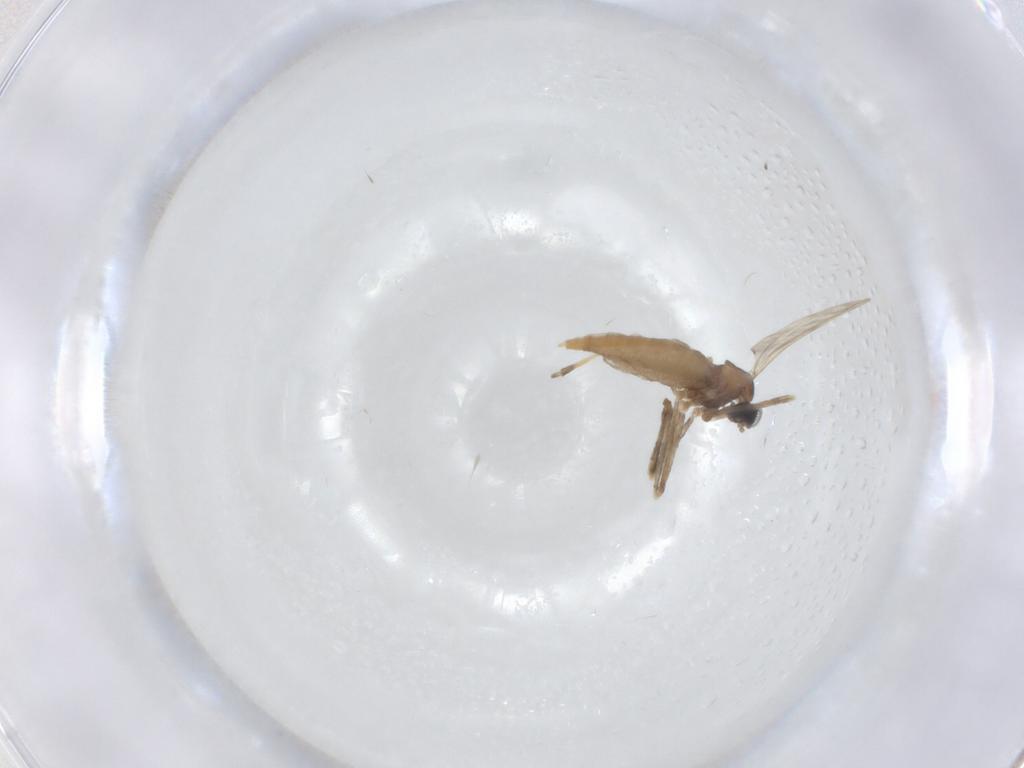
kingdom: Animalia
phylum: Arthropoda
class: Insecta
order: Diptera
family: Cecidomyiidae
